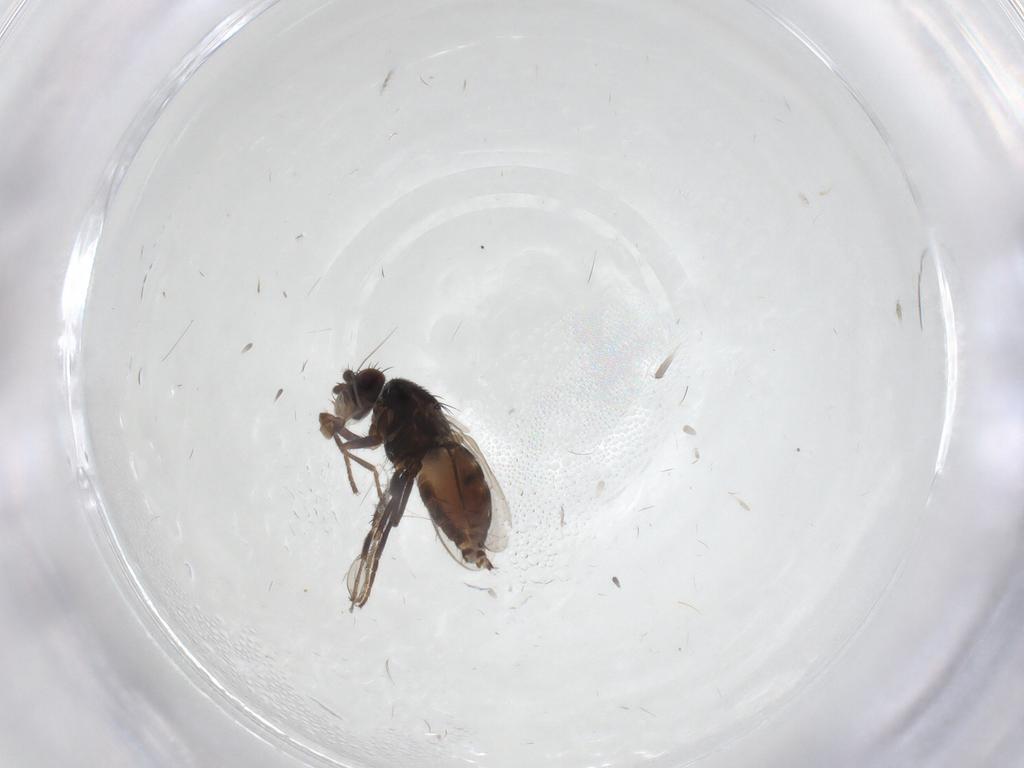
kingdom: Animalia
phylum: Arthropoda
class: Insecta
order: Diptera
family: Sphaeroceridae
